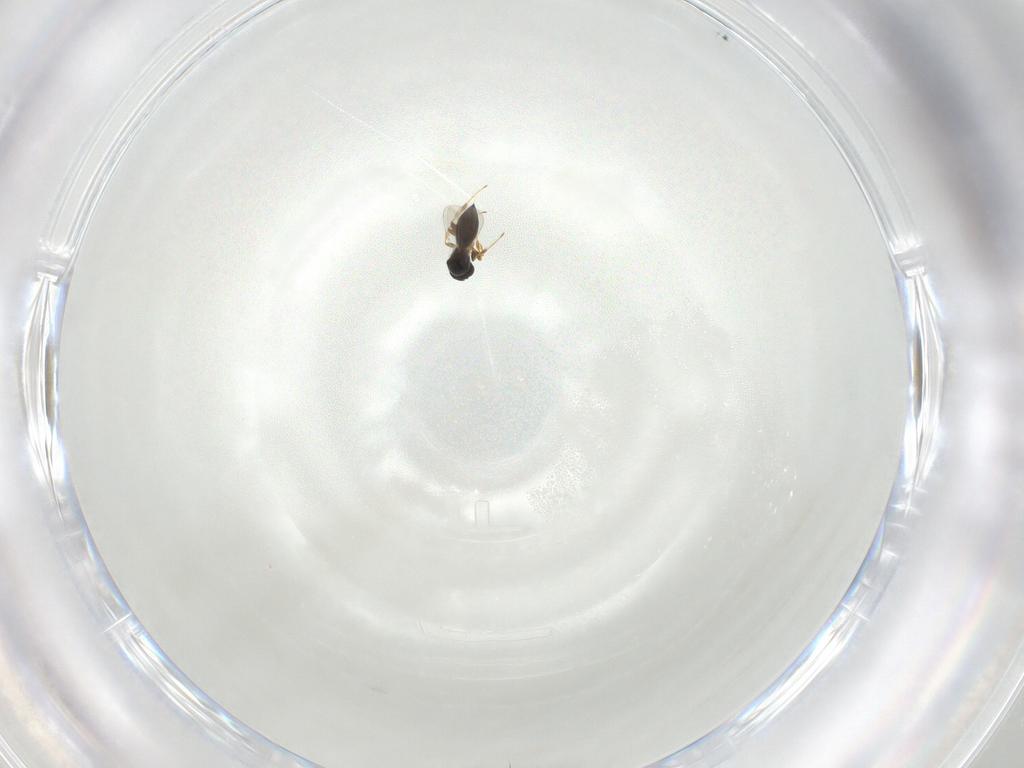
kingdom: Animalia
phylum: Arthropoda
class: Insecta
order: Hymenoptera
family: Platygastridae
